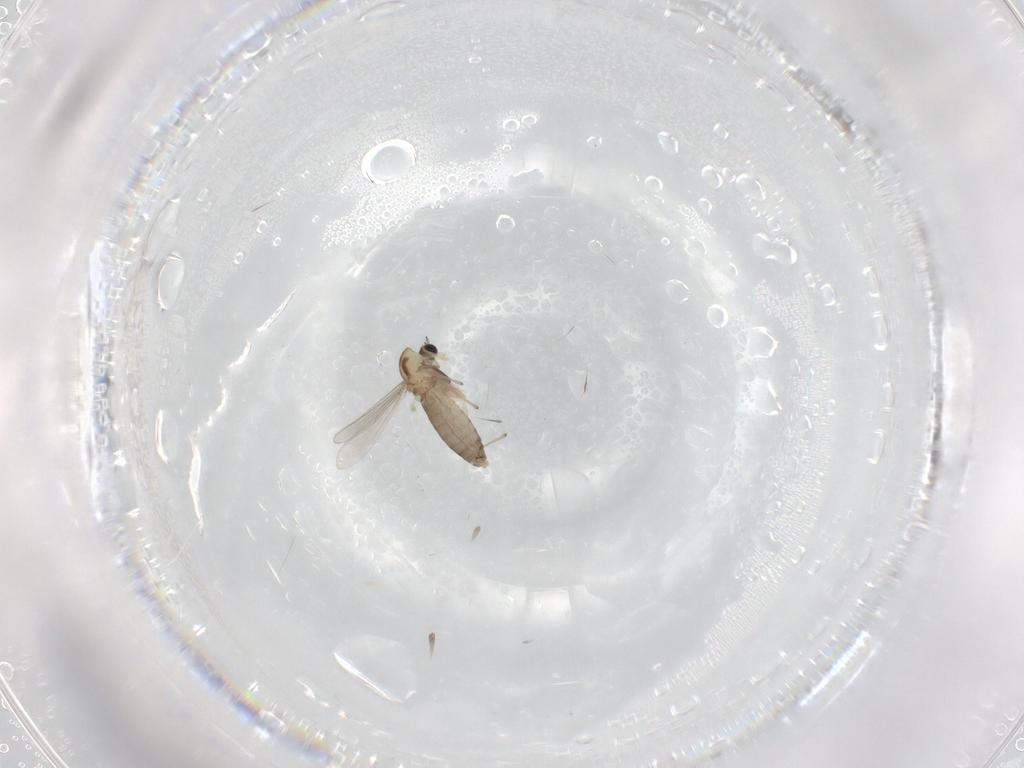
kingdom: Animalia
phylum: Arthropoda
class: Insecta
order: Diptera
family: Chironomidae
